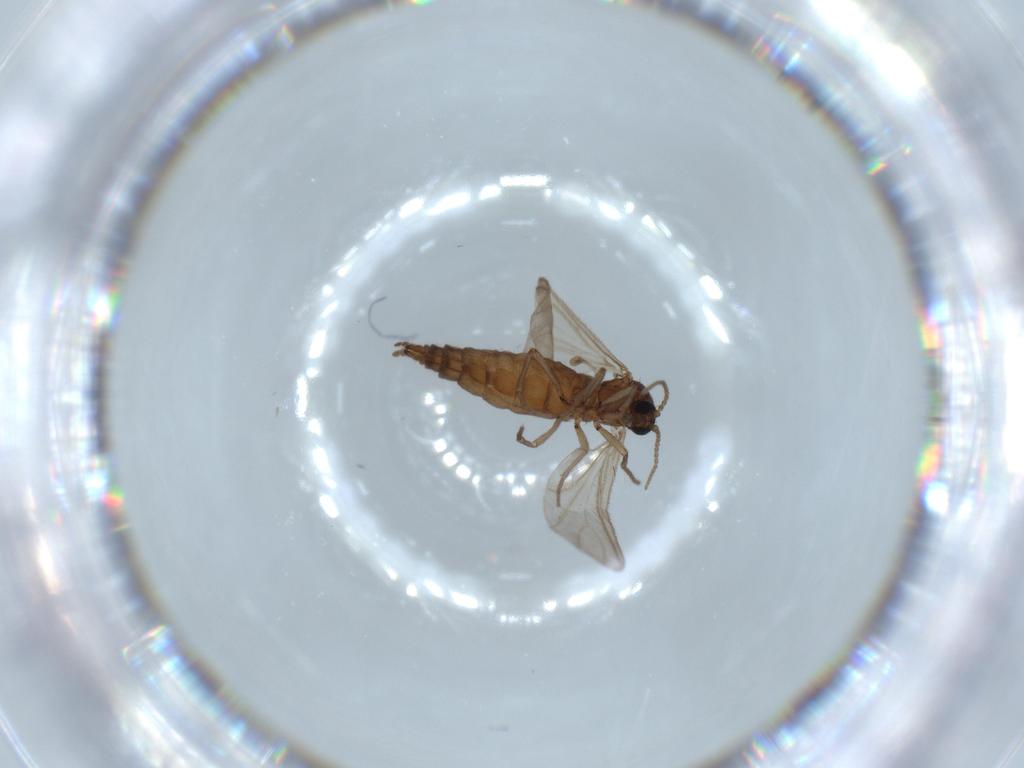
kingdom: Animalia
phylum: Arthropoda
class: Insecta
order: Diptera
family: Sciaridae
